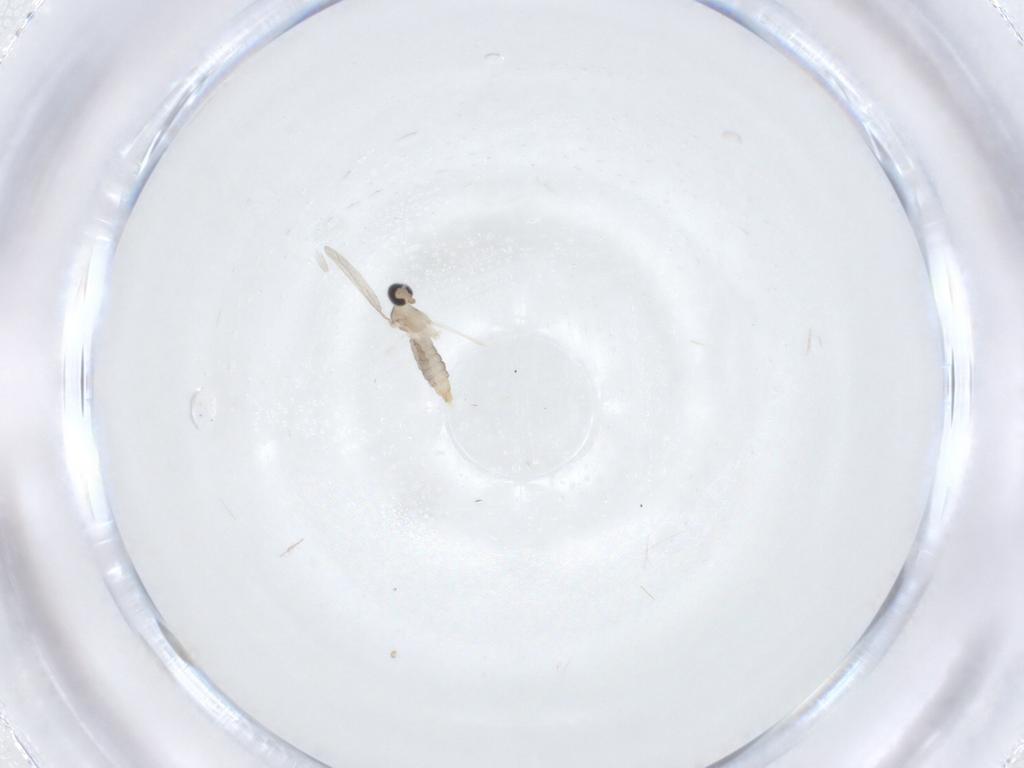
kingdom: Animalia
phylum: Arthropoda
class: Insecta
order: Diptera
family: Cecidomyiidae
